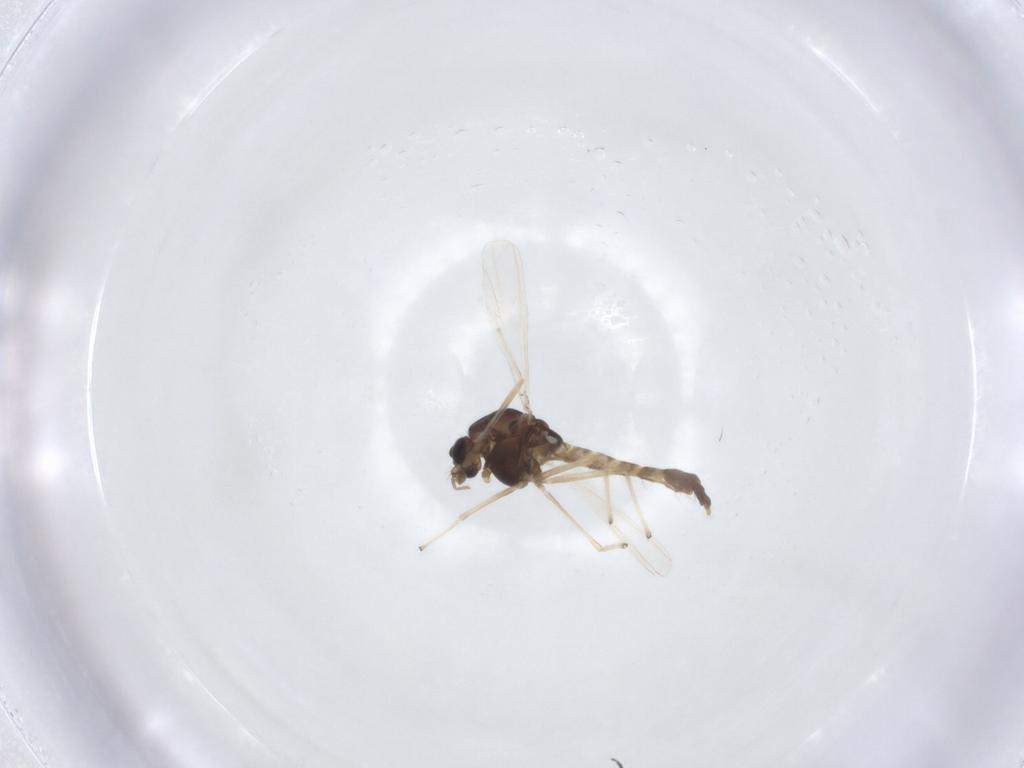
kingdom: Animalia
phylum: Arthropoda
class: Insecta
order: Diptera
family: Chironomidae
